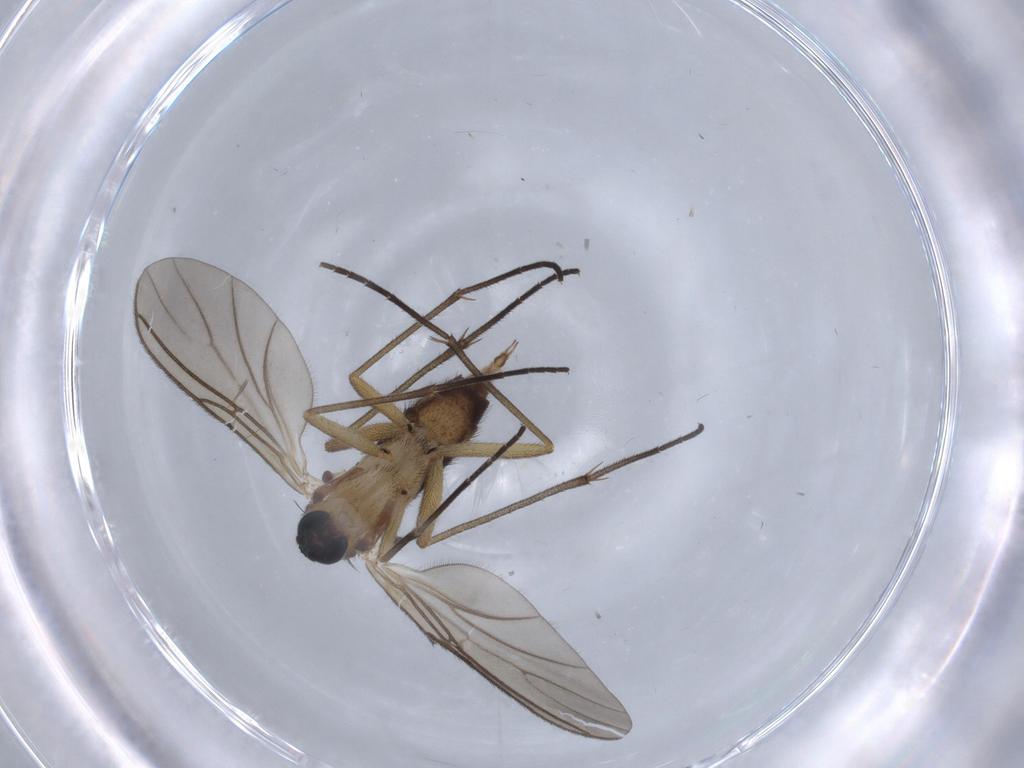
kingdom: Animalia
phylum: Arthropoda
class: Insecta
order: Diptera
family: Sciaridae
